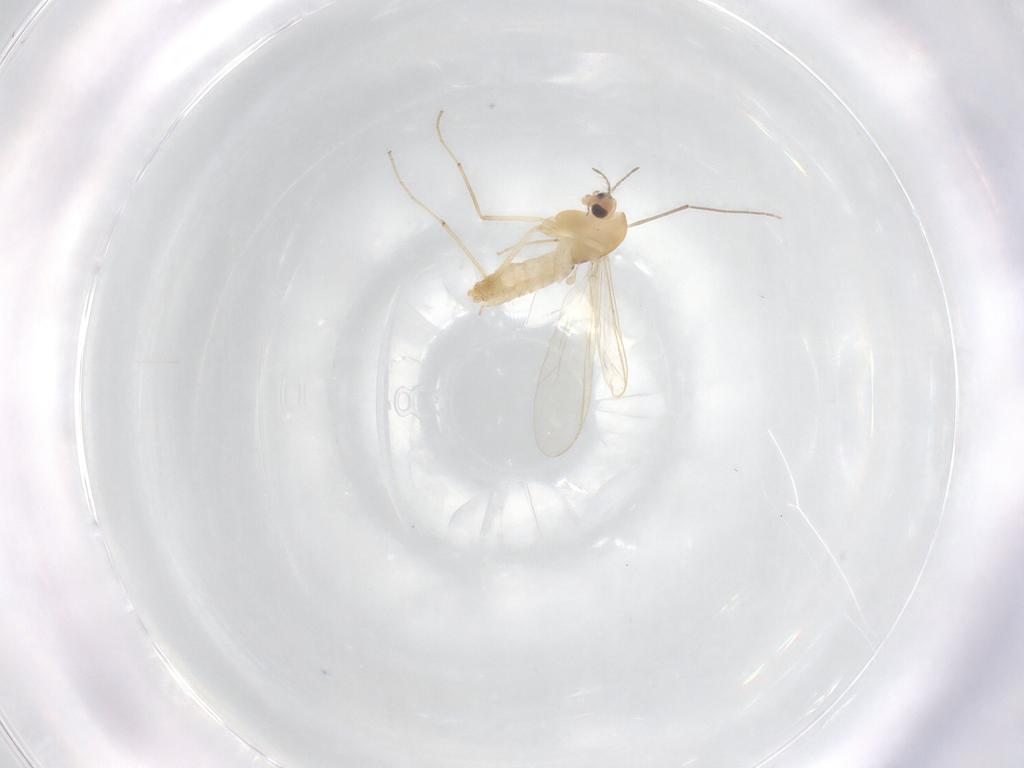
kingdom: Animalia
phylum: Arthropoda
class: Insecta
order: Diptera
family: Chironomidae
